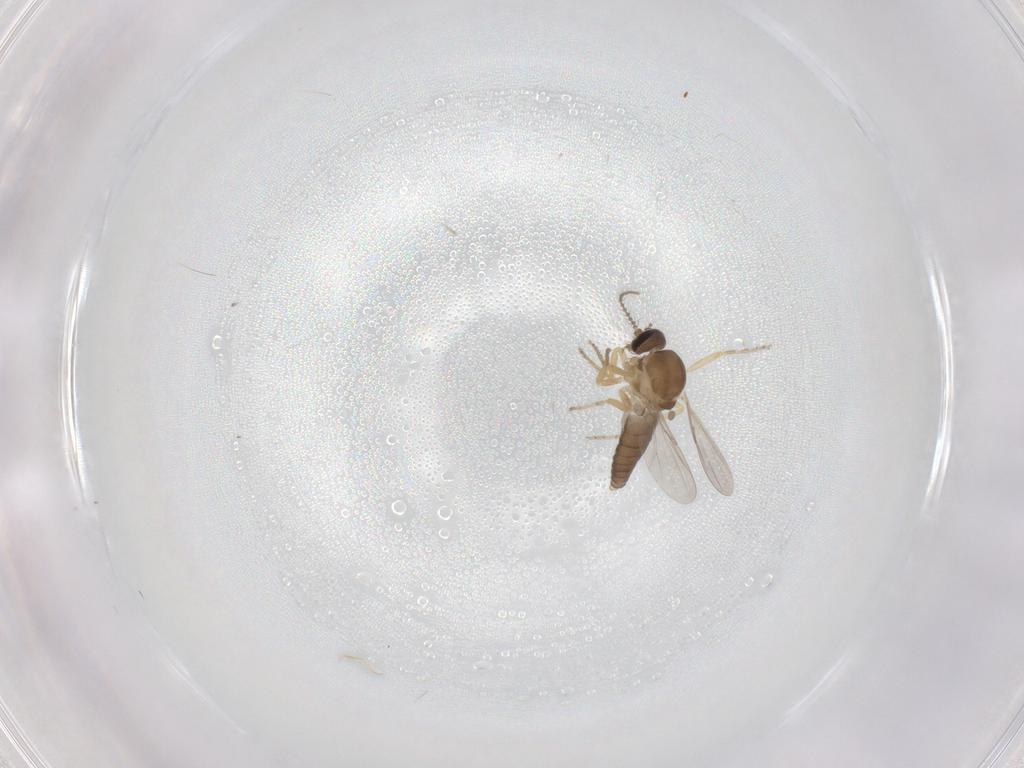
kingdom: Animalia
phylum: Arthropoda
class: Insecta
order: Diptera
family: Ceratopogonidae
